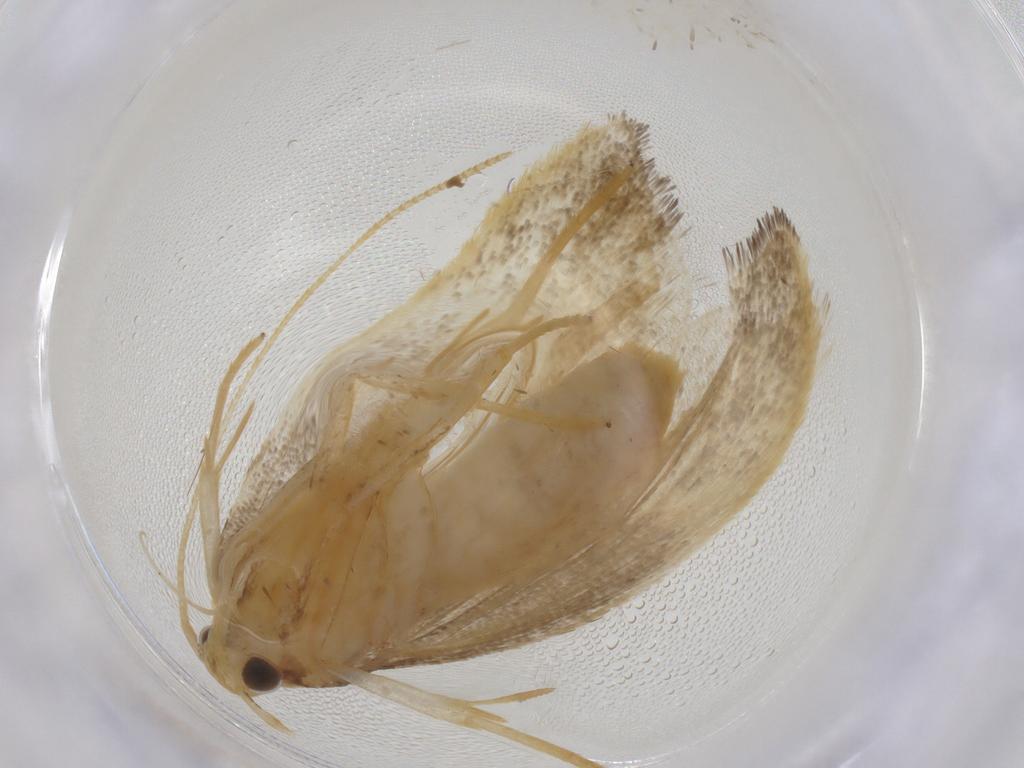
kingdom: Animalia
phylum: Arthropoda
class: Insecta
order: Lepidoptera
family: Lecithoceridae
